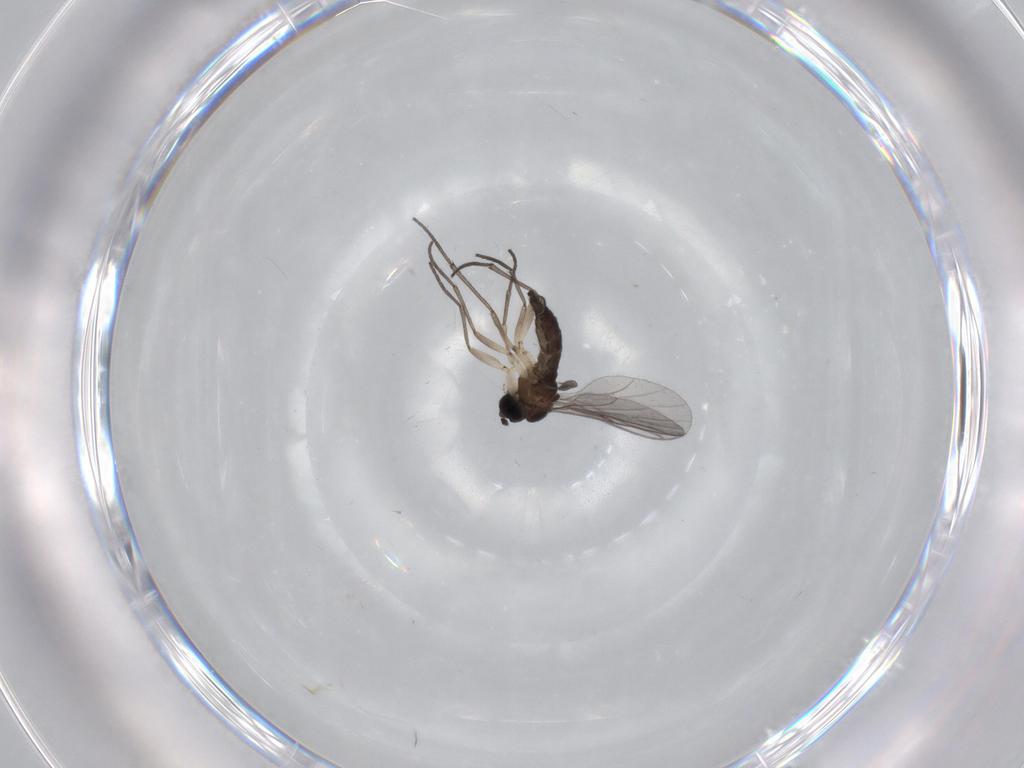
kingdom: Animalia
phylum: Arthropoda
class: Insecta
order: Diptera
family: Sciaridae
